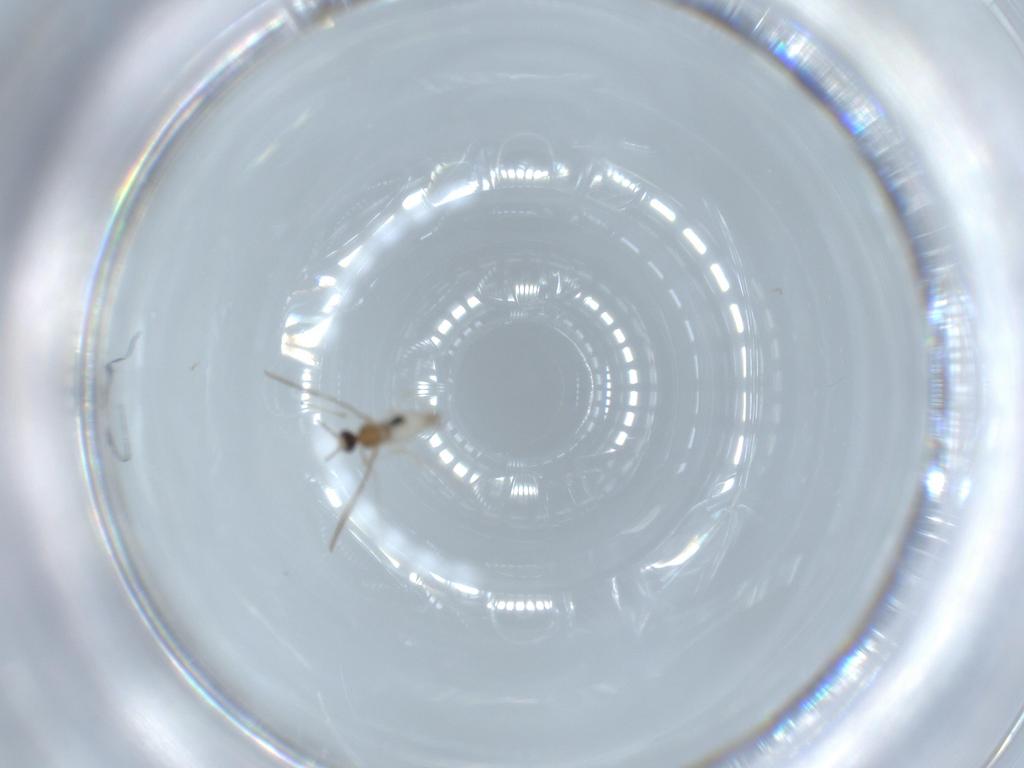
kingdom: Animalia
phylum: Arthropoda
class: Insecta
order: Diptera
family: Cecidomyiidae
